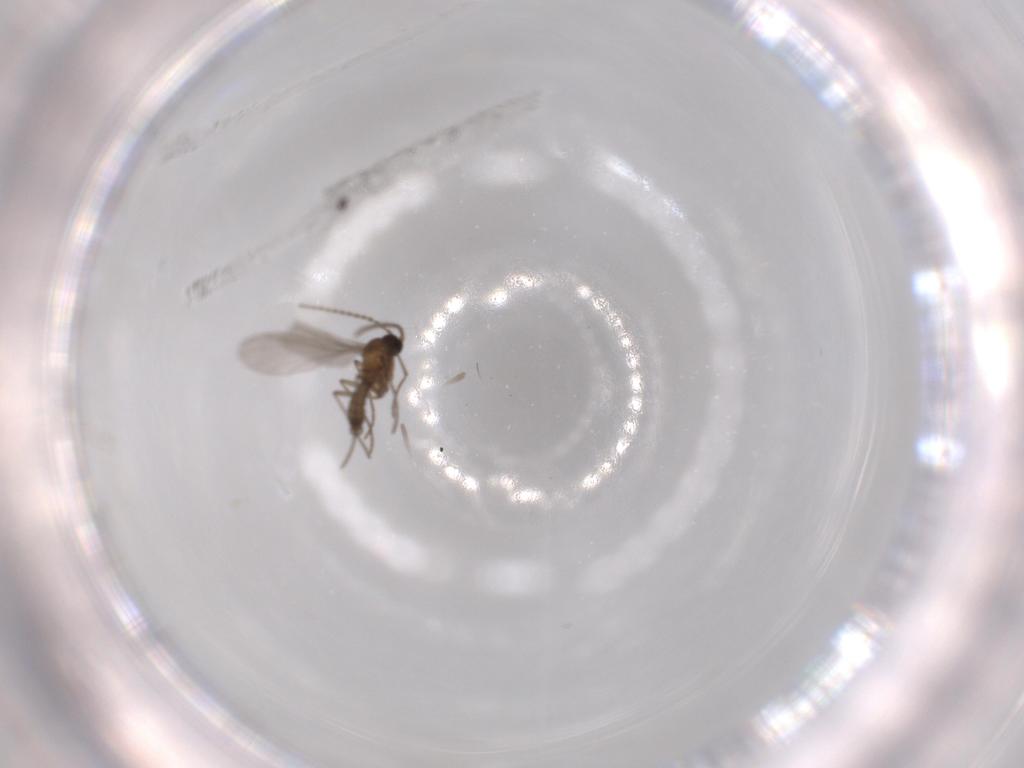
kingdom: Animalia
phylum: Arthropoda
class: Insecta
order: Diptera
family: Sciaridae
